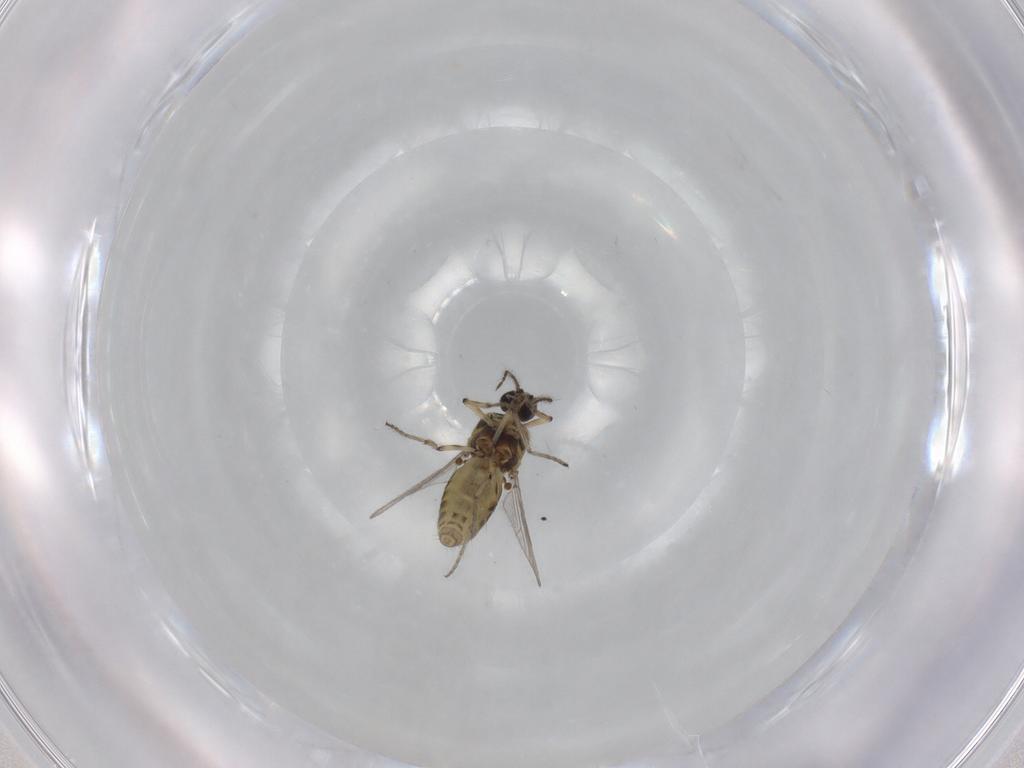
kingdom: Animalia
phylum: Arthropoda
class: Insecta
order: Diptera
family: Ceratopogonidae
